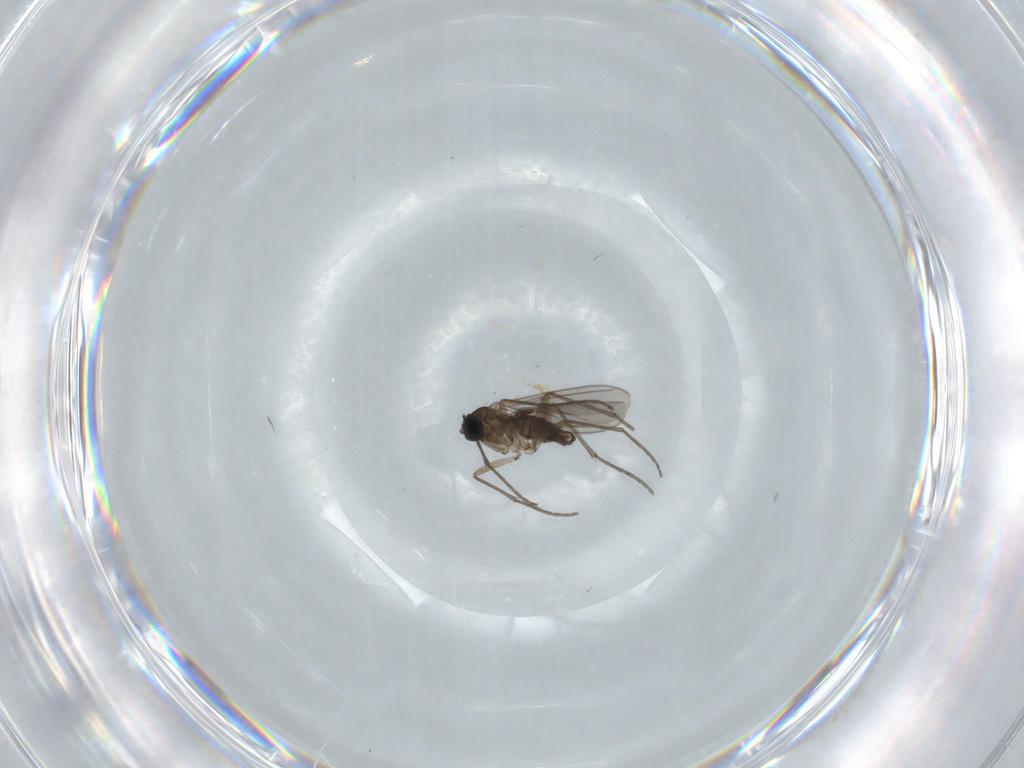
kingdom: Animalia
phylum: Arthropoda
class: Insecta
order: Diptera
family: Sciaridae
